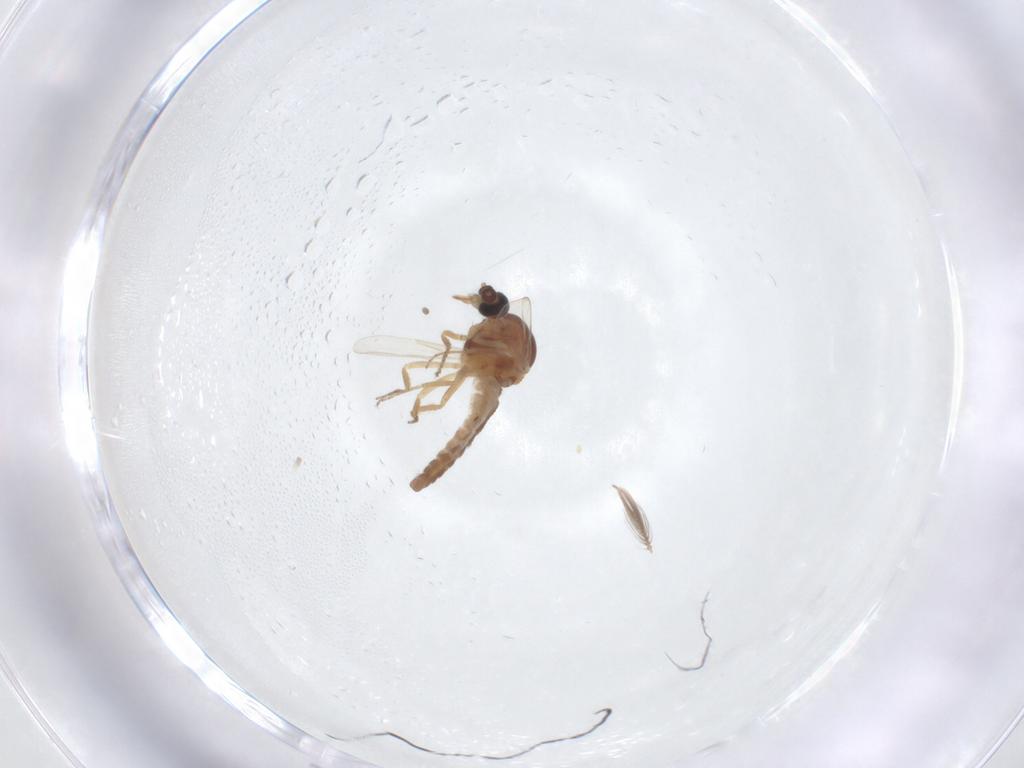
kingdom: Animalia
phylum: Arthropoda
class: Insecta
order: Diptera
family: Ceratopogonidae
